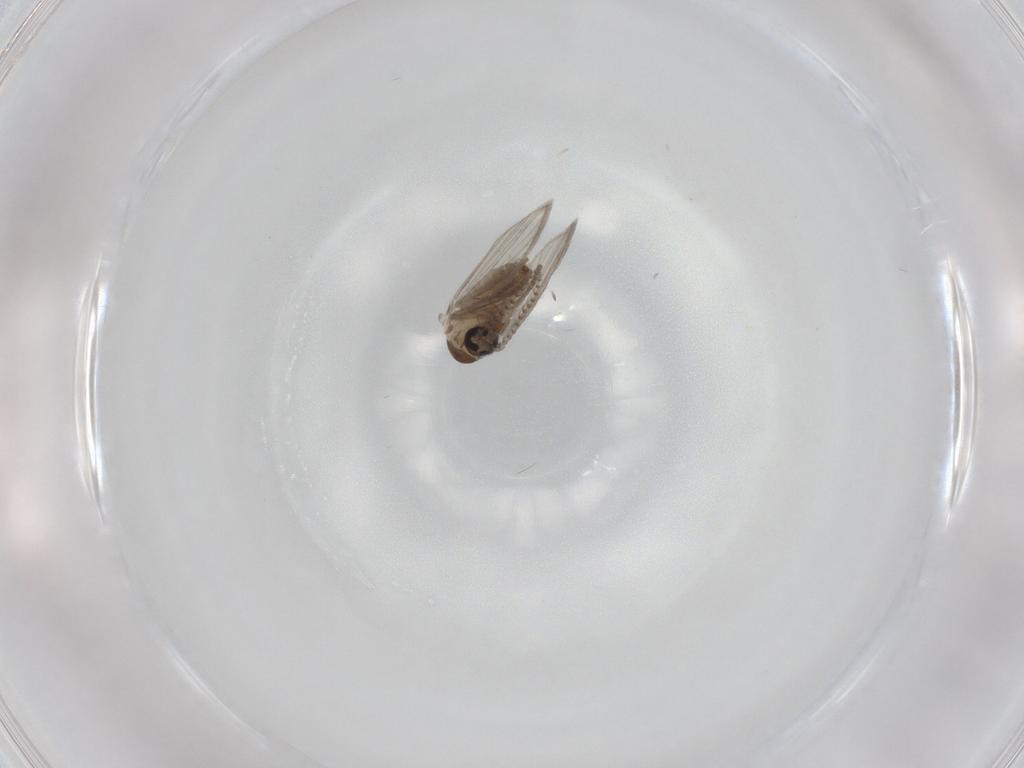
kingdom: Animalia
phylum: Arthropoda
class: Insecta
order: Diptera
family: Psychodidae
